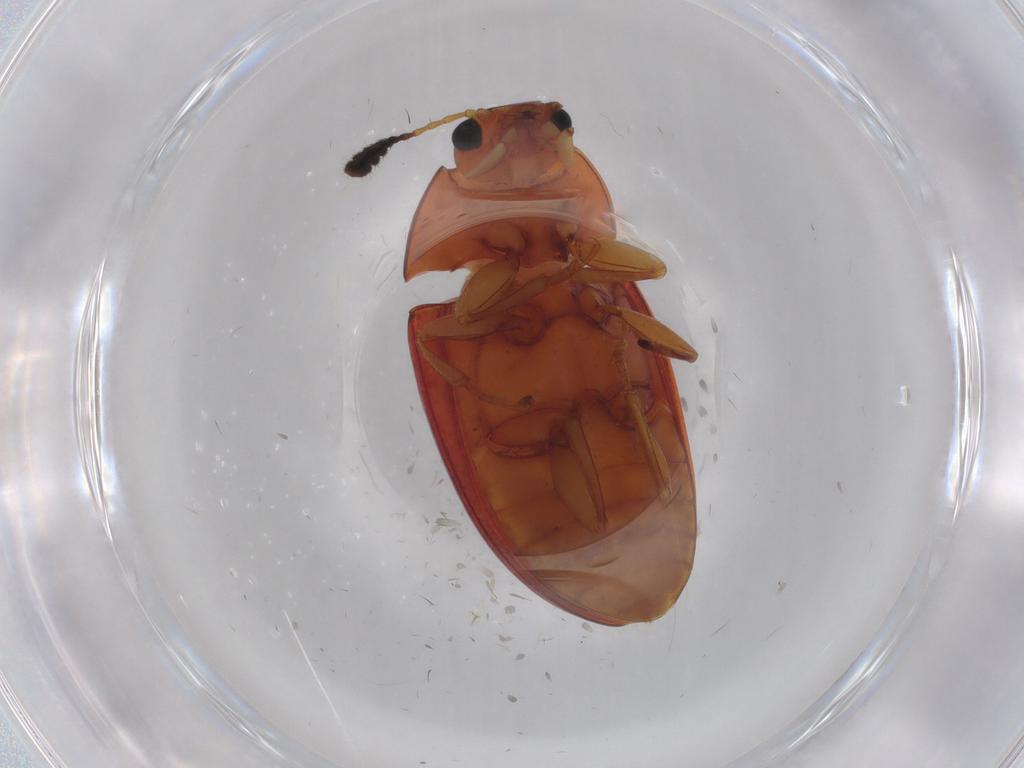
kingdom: Animalia
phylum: Arthropoda
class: Insecta
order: Coleoptera
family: Erotylidae
